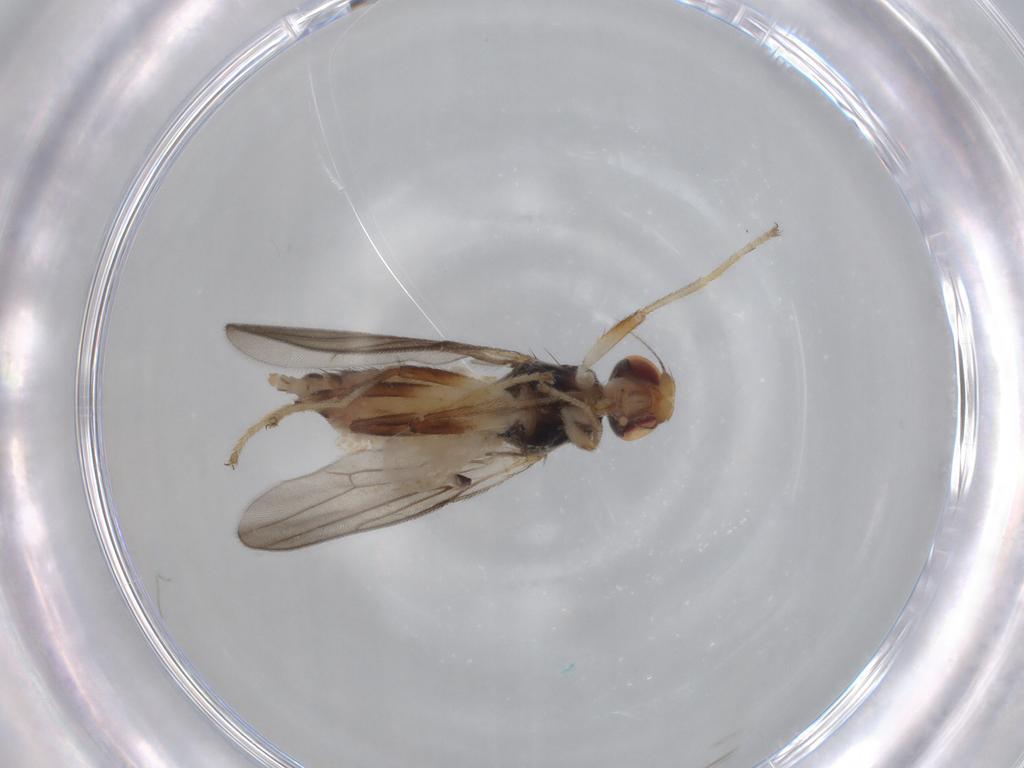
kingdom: Animalia
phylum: Arthropoda
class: Insecta
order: Diptera
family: Chloropidae
